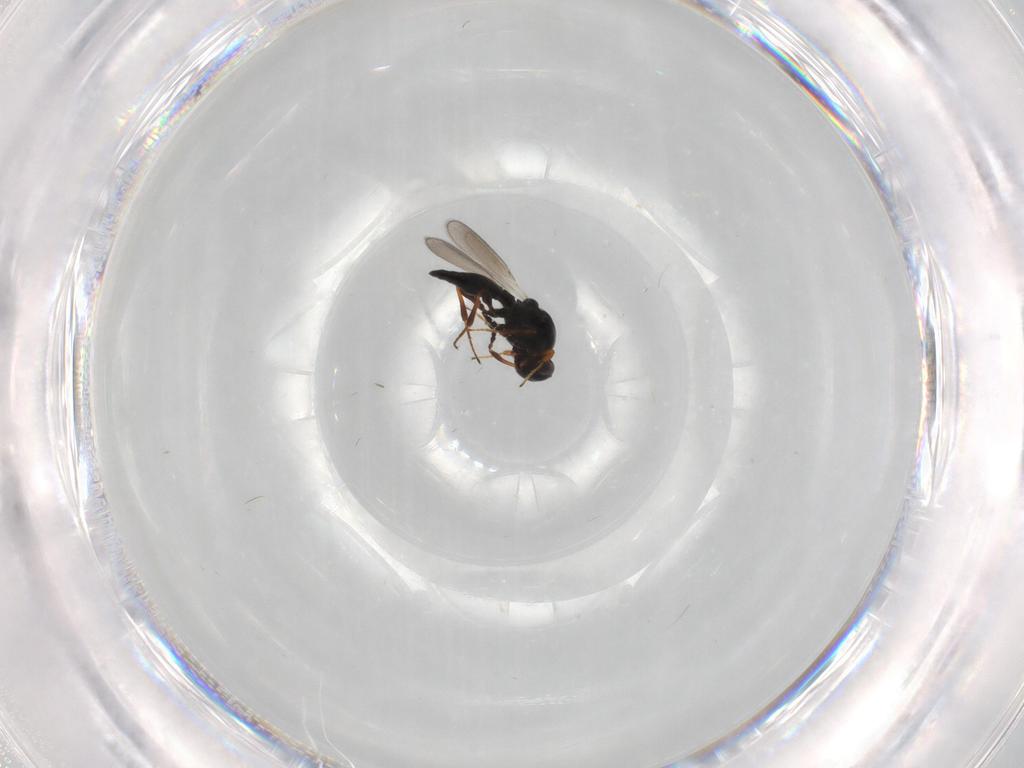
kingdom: Animalia
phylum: Arthropoda
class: Insecta
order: Hymenoptera
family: Platygastridae
